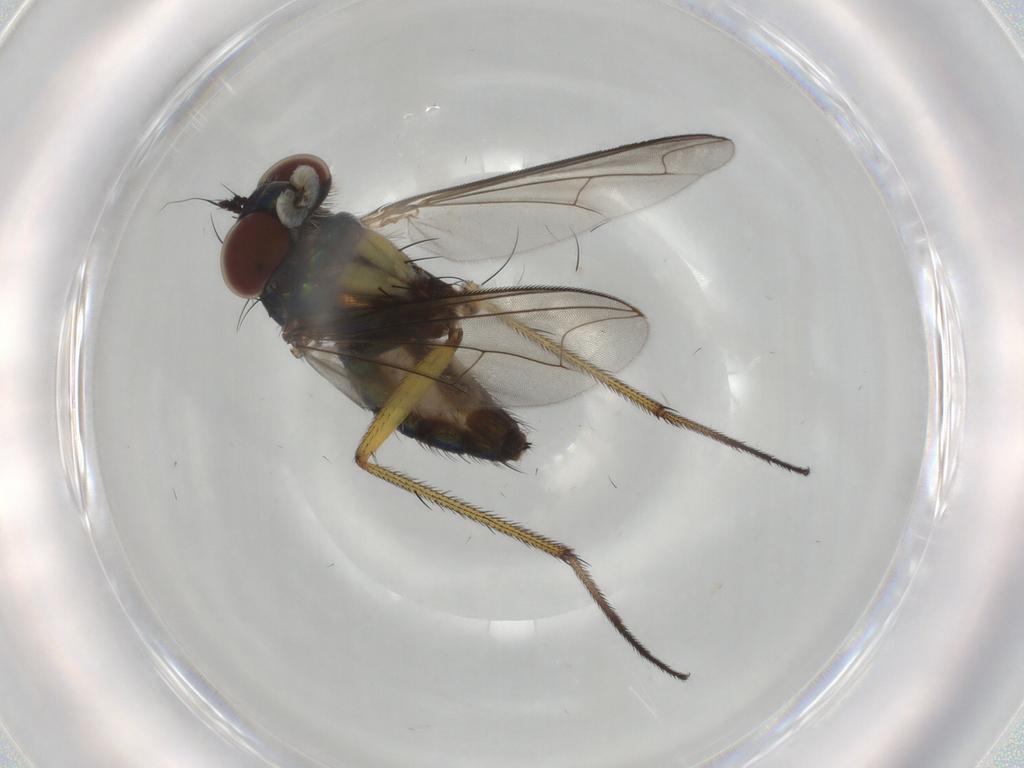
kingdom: Animalia
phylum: Arthropoda
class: Insecta
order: Diptera
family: Dolichopodidae
